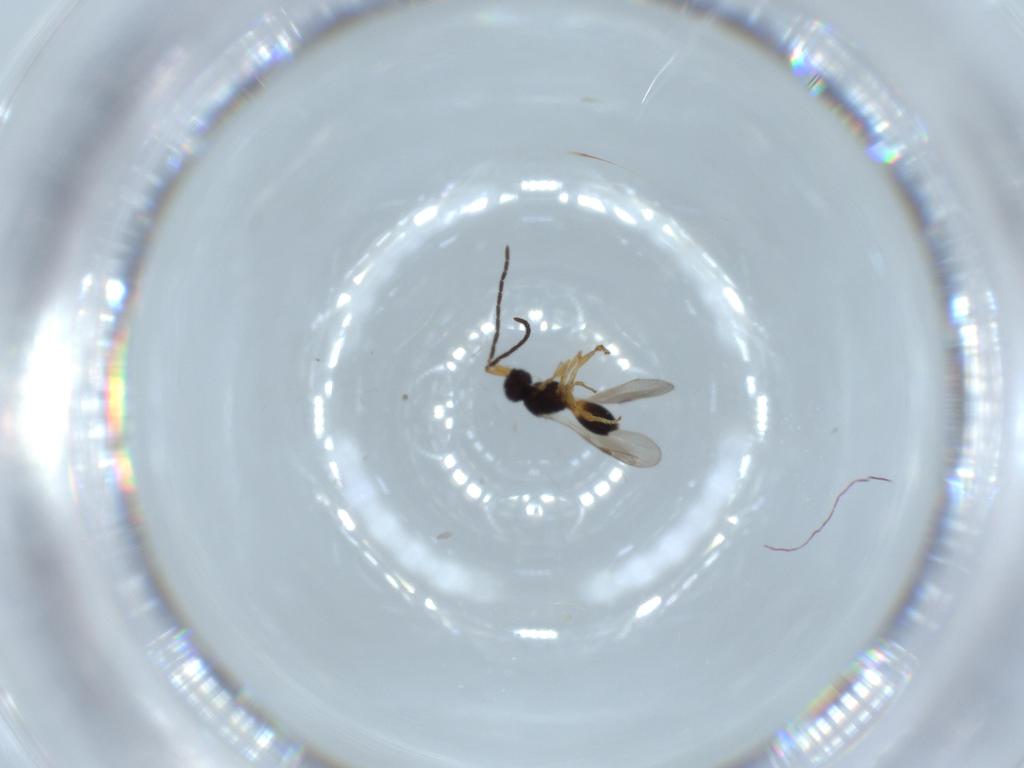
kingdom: Animalia
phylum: Arthropoda
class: Insecta
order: Hymenoptera
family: Megaspilidae
